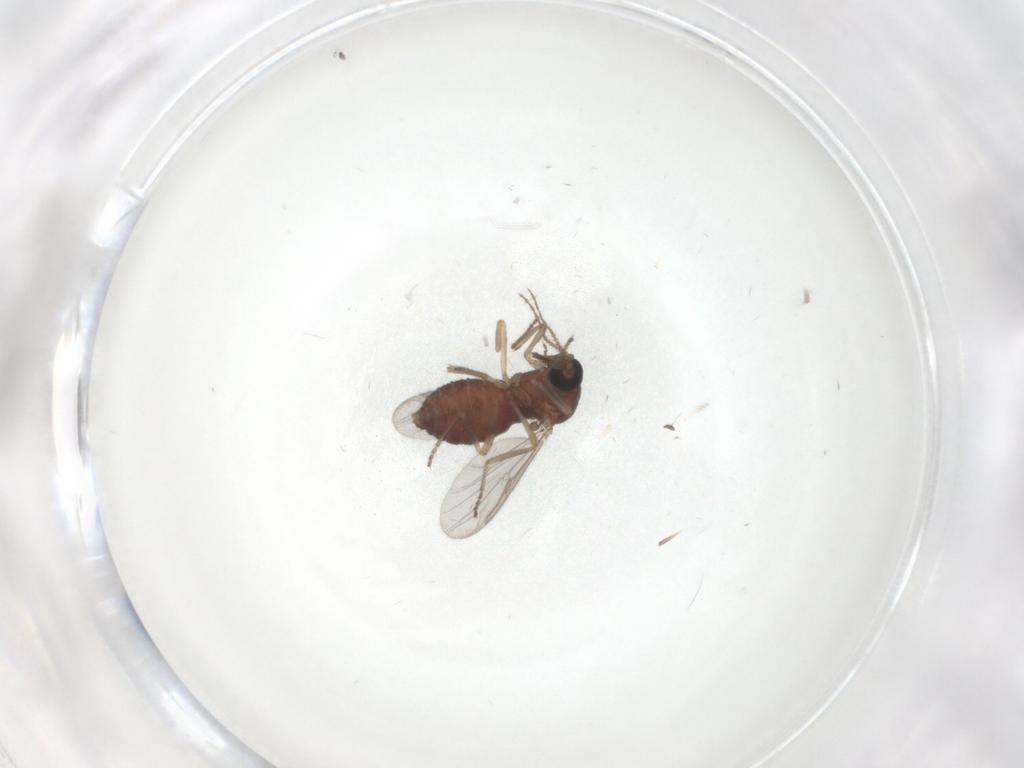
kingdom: Animalia
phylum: Arthropoda
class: Insecta
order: Diptera
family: Ceratopogonidae
